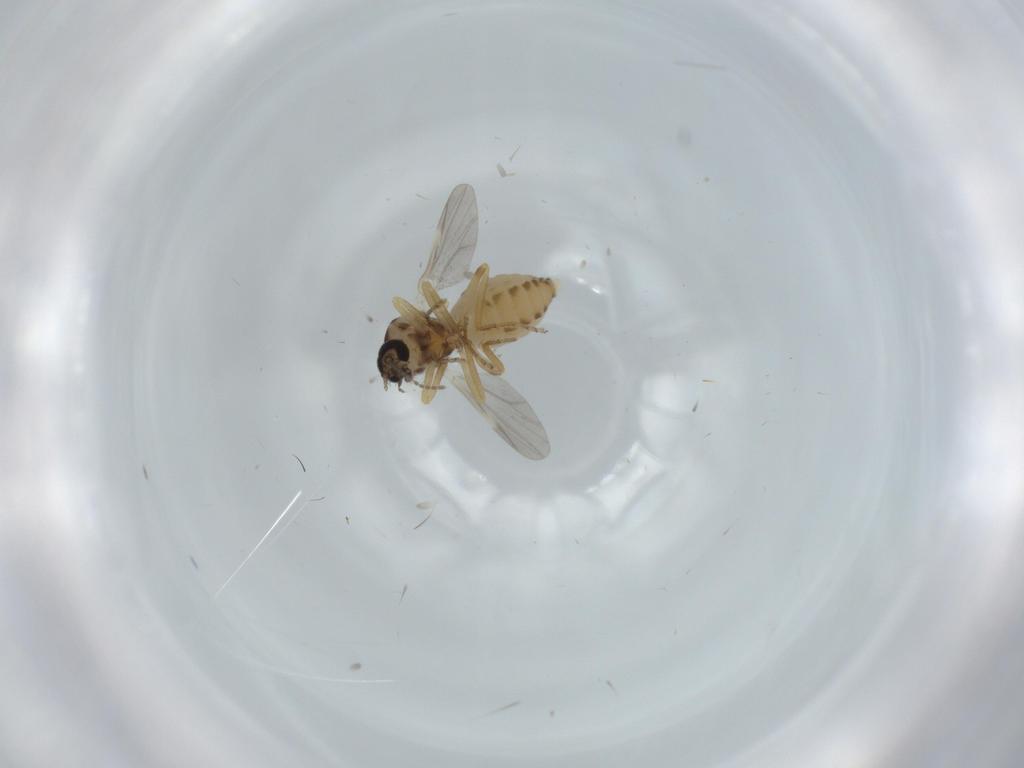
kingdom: Animalia
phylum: Arthropoda
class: Insecta
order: Diptera
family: Ceratopogonidae
